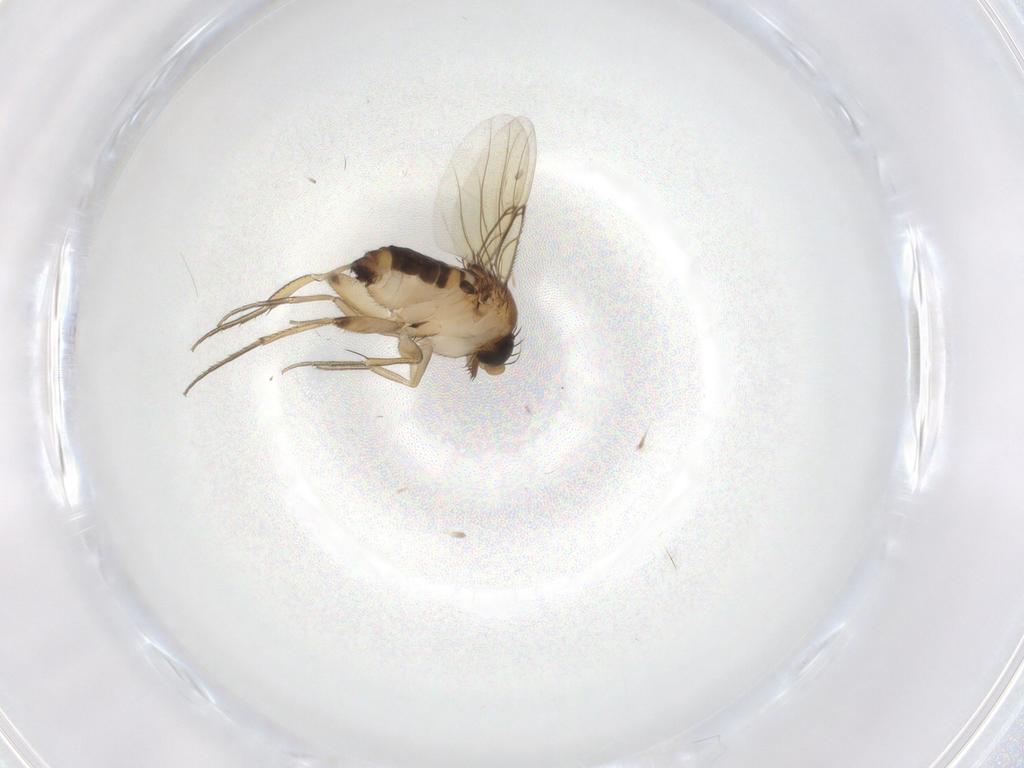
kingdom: Animalia
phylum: Arthropoda
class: Insecta
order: Diptera
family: Phoridae
